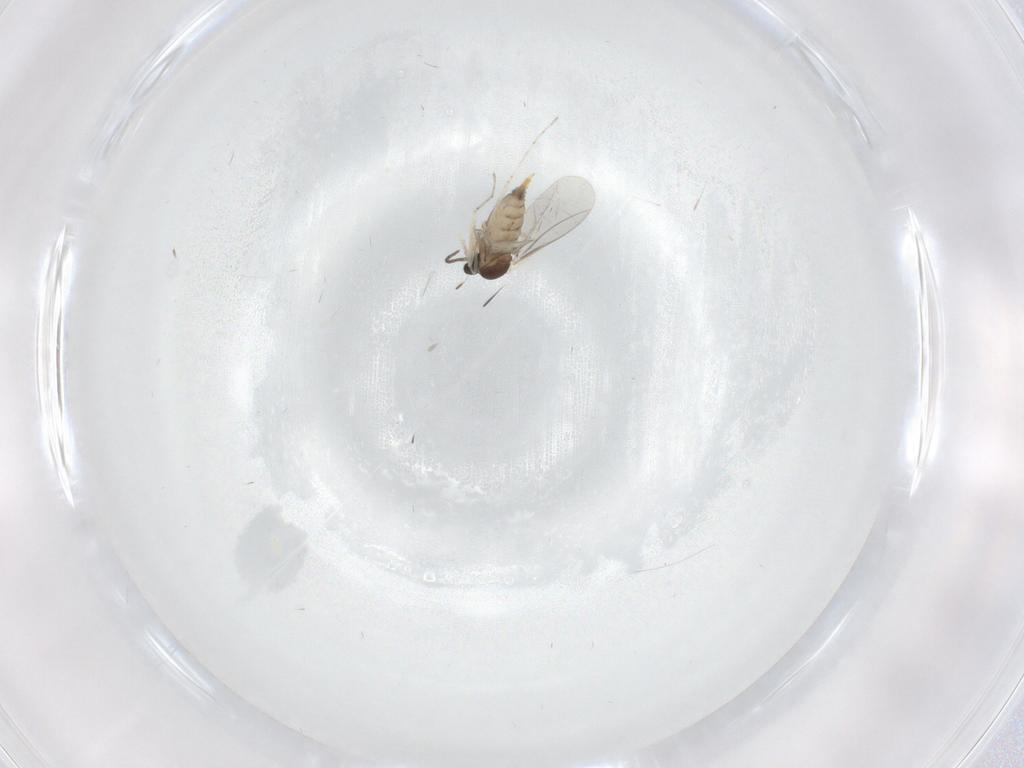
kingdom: Animalia
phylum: Arthropoda
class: Insecta
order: Diptera
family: Cecidomyiidae
